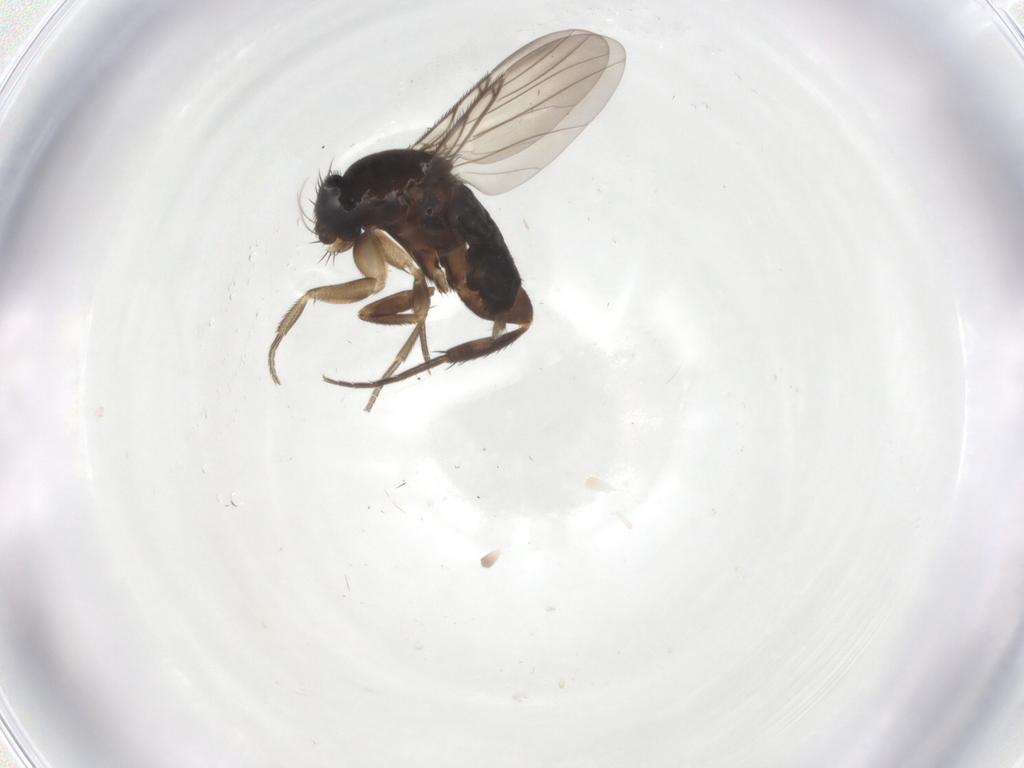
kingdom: Animalia
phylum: Arthropoda
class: Insecta
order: Diptera
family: Phoridae
